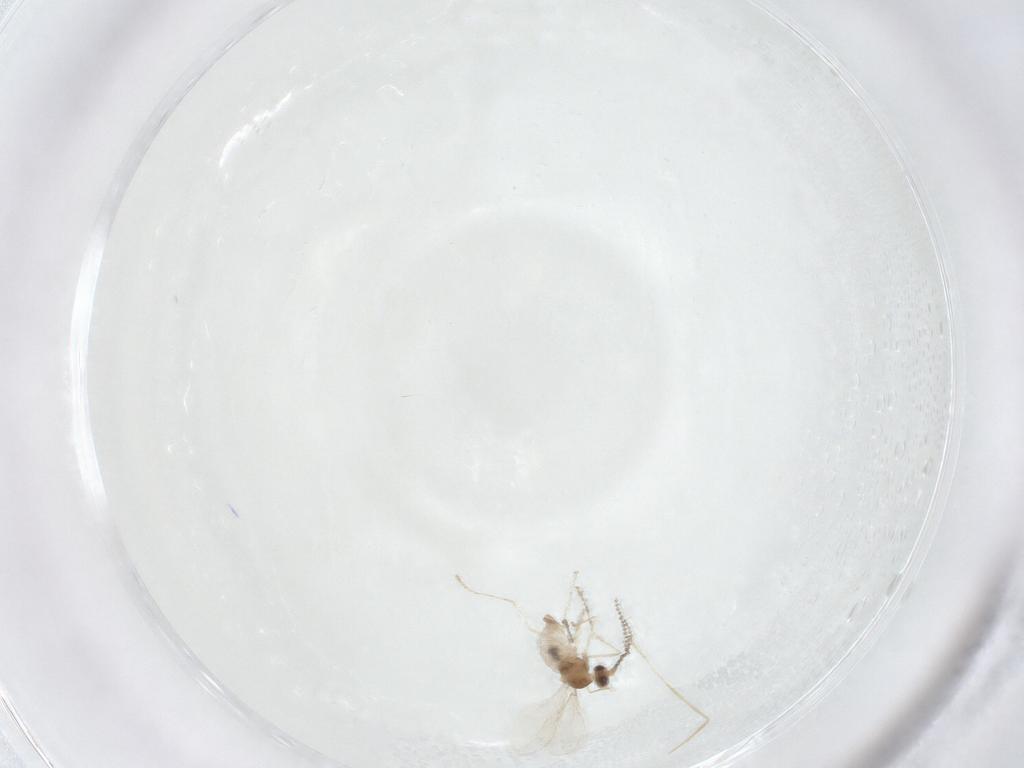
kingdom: Animalia
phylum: Arthropoda
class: Insecta
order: Diptera
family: Cecidomyiidae
